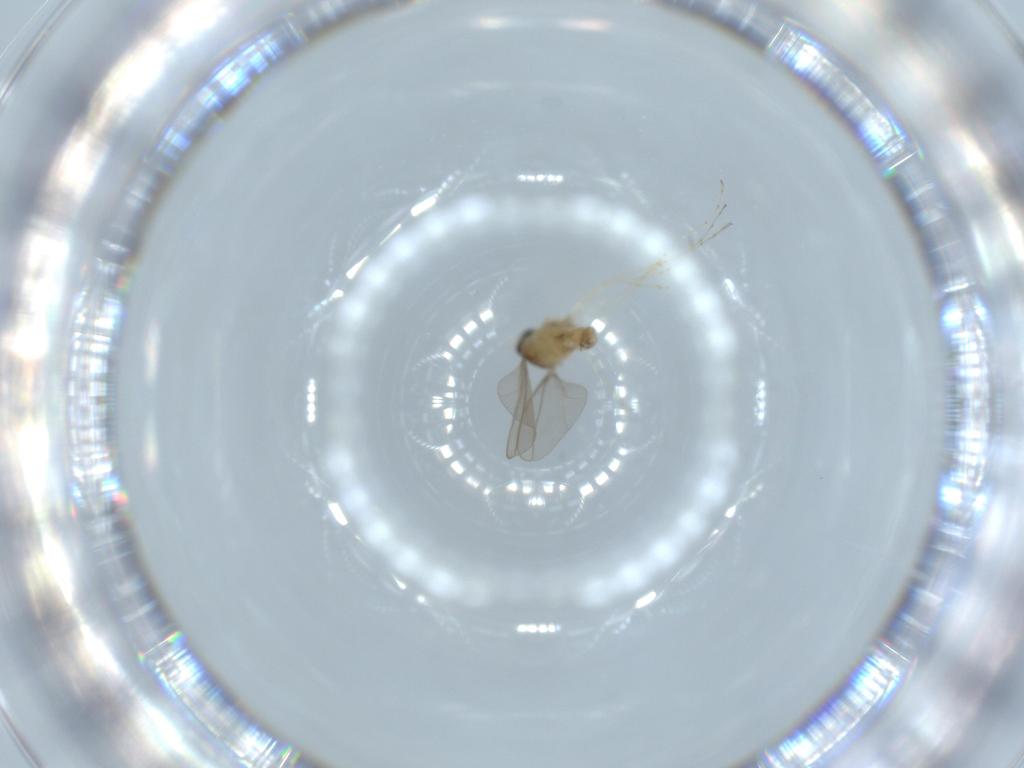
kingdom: Animalia
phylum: Arthropoda
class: Insecta
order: Diptera
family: Cecidomyiidae
